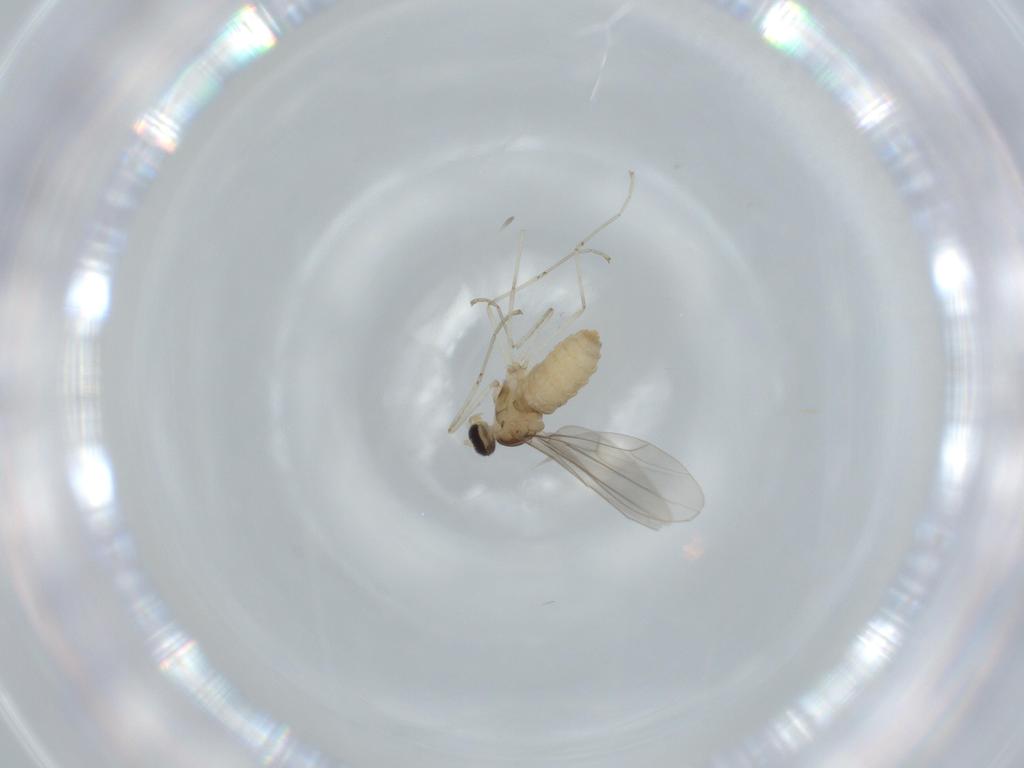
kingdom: Animalia
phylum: Arthropoda
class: Insecta
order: Diptera
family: Cecidomyiidae
